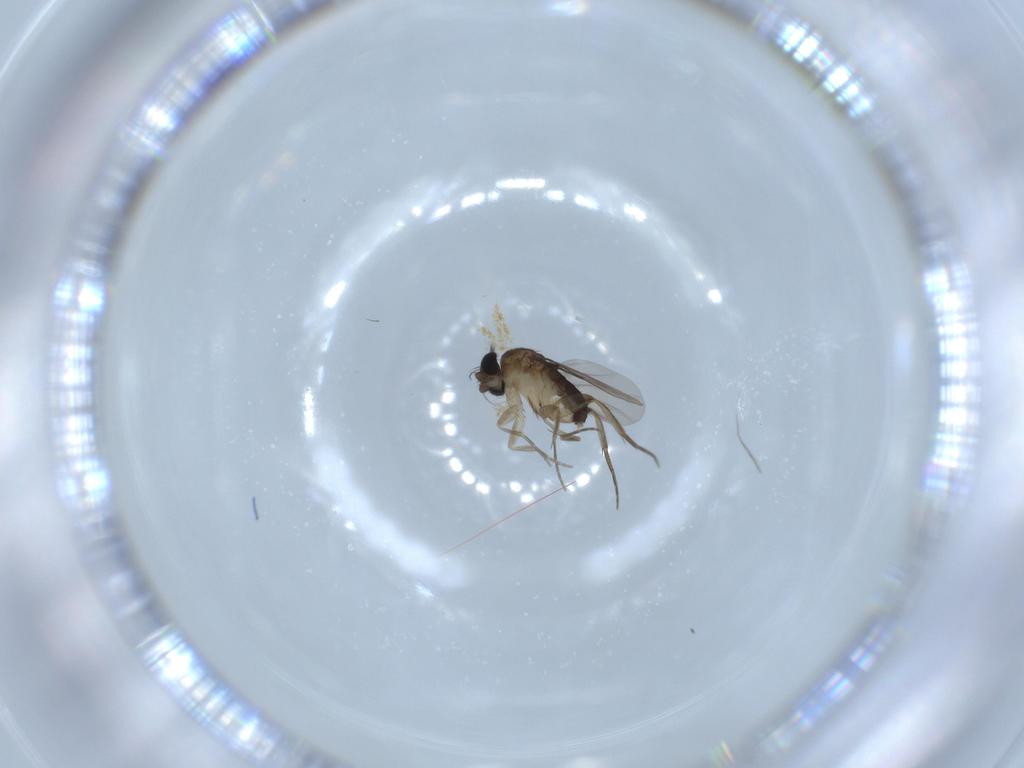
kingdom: Animalia
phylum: Arthropoda
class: Insecta
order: Diptera
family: Phoridae
